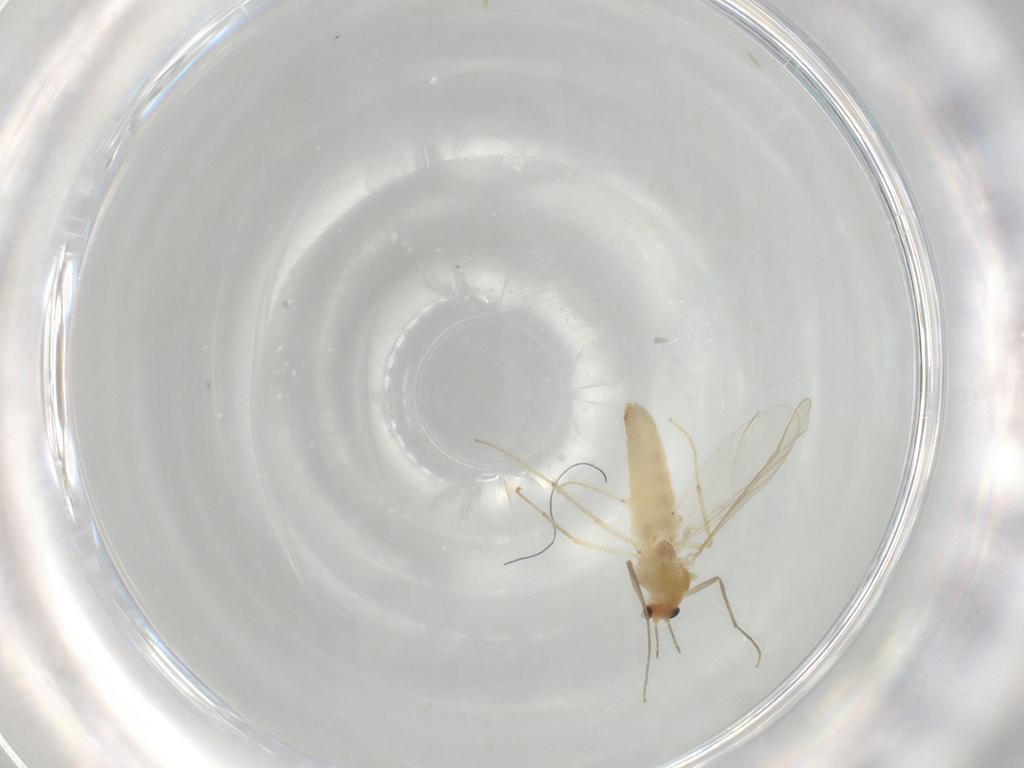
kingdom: Animalia
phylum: Arthropoda
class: Insecta
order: Diptera
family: Chironomidae
